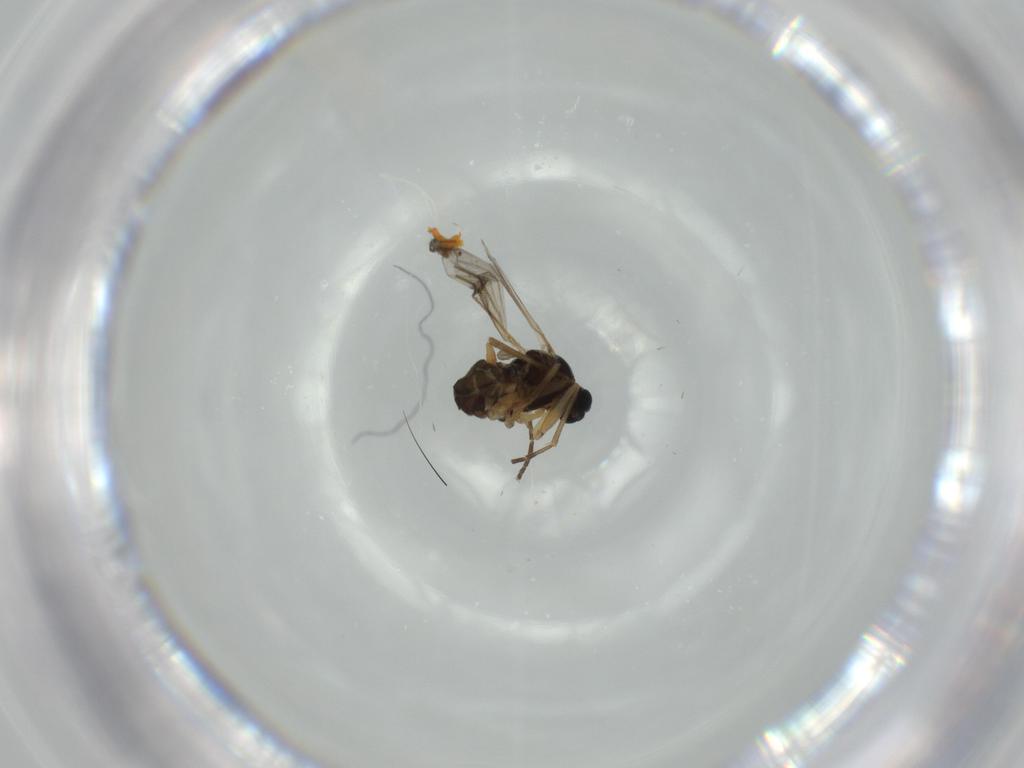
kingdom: Animalia
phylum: Arthropoda
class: Insecta
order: Diptera
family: Chironomidae
